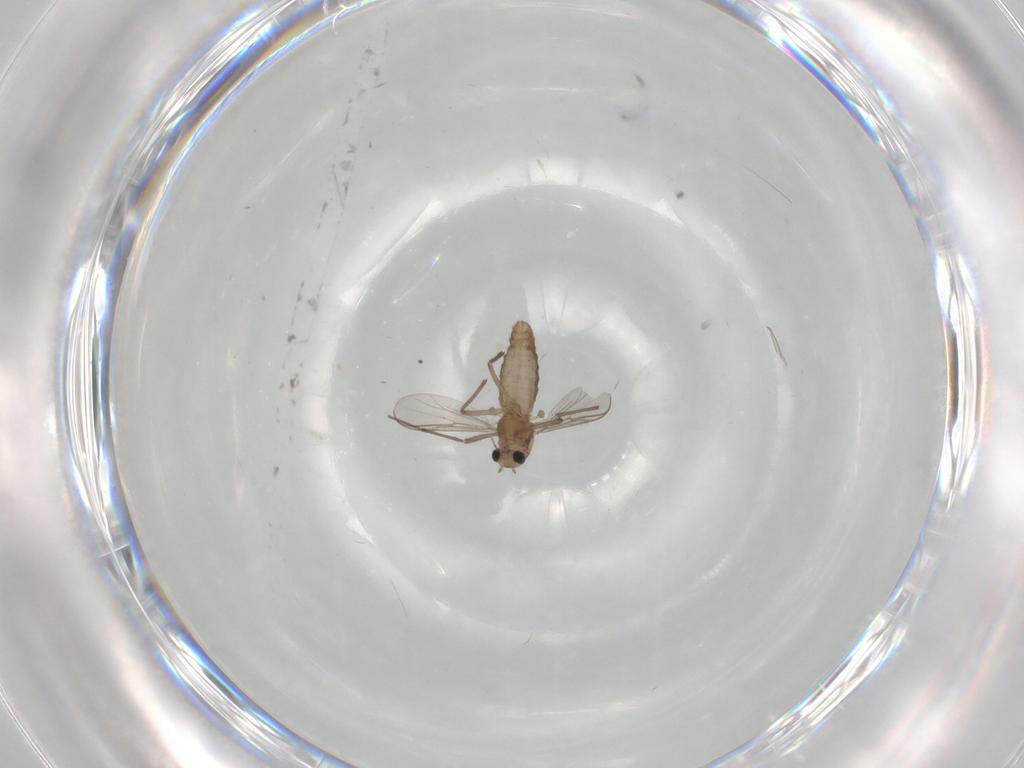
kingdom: Animalia
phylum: Arthropoda
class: Insecta
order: Diptera
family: Chironomidae
